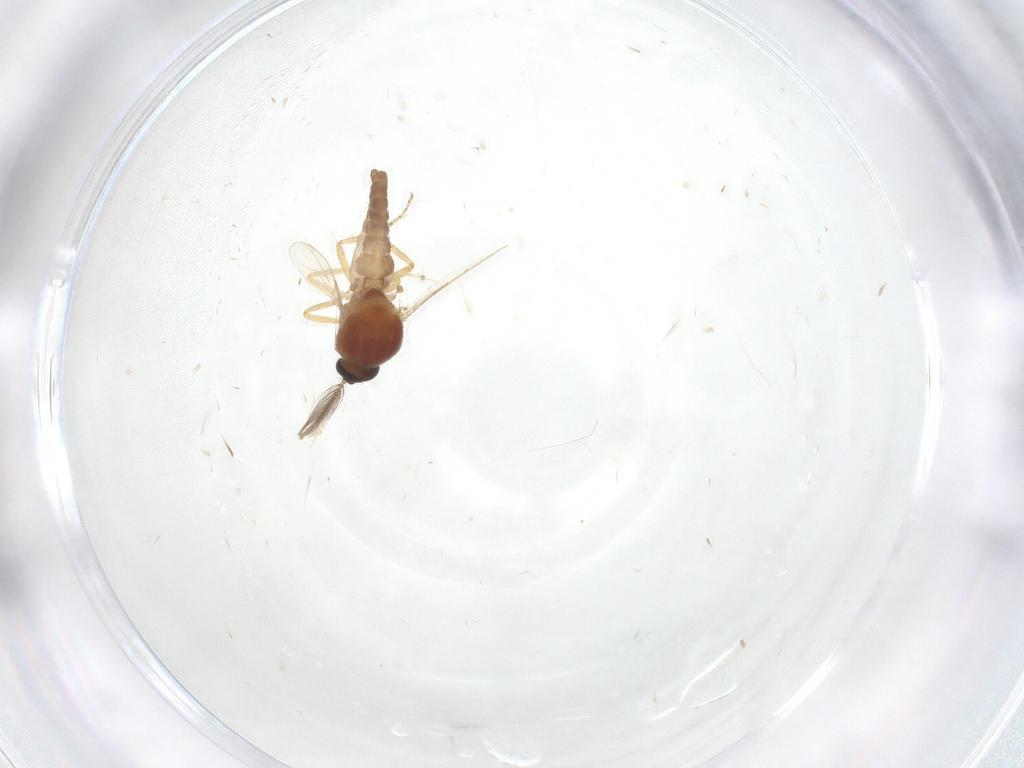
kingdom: Animalia
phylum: Arthropoda
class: Insecta
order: Diptera
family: Ceratopogonidae
